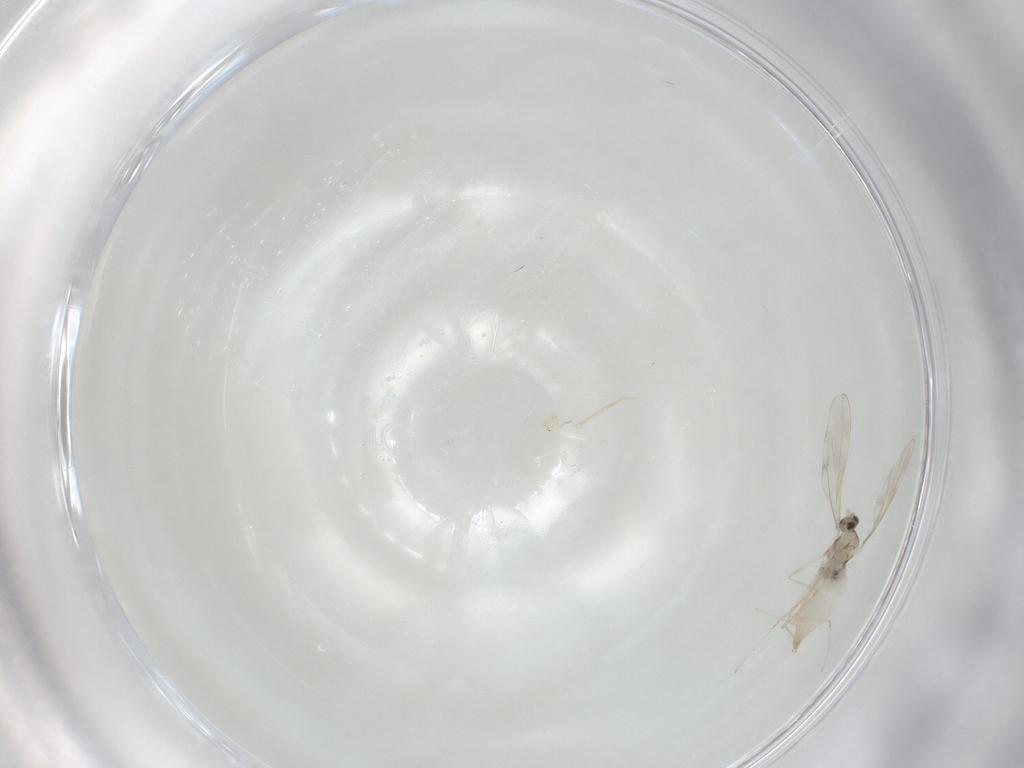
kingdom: Animalia
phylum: Arthropoda
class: Insecta
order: Diptera
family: Cecidomyiidae
